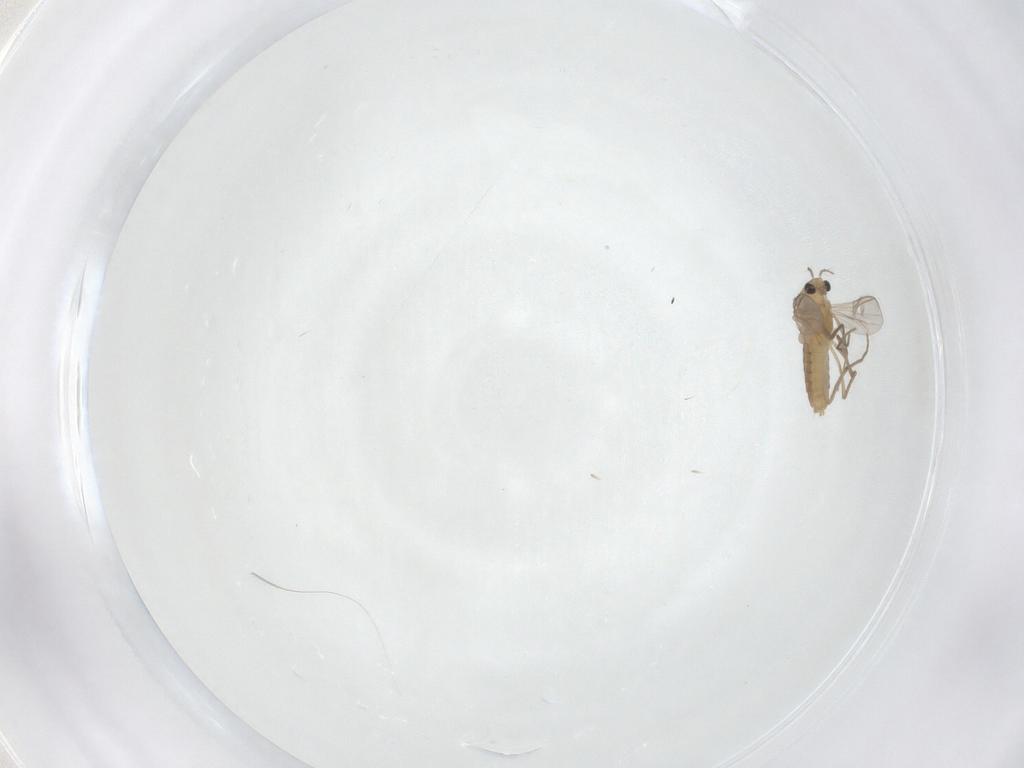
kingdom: Animalia
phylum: Arthropoda
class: Insecta
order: Diptera
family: Chironomidae
